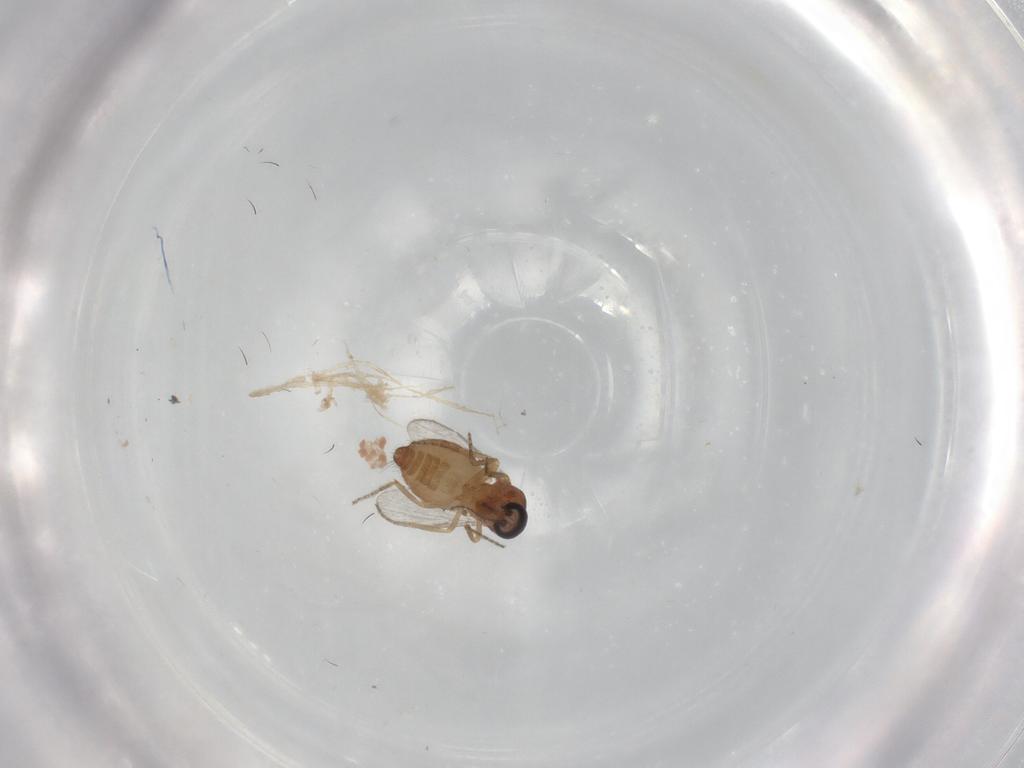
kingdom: Animalia
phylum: Arthropoda
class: Insecta
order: Diptera
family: Ceratopogonidae
